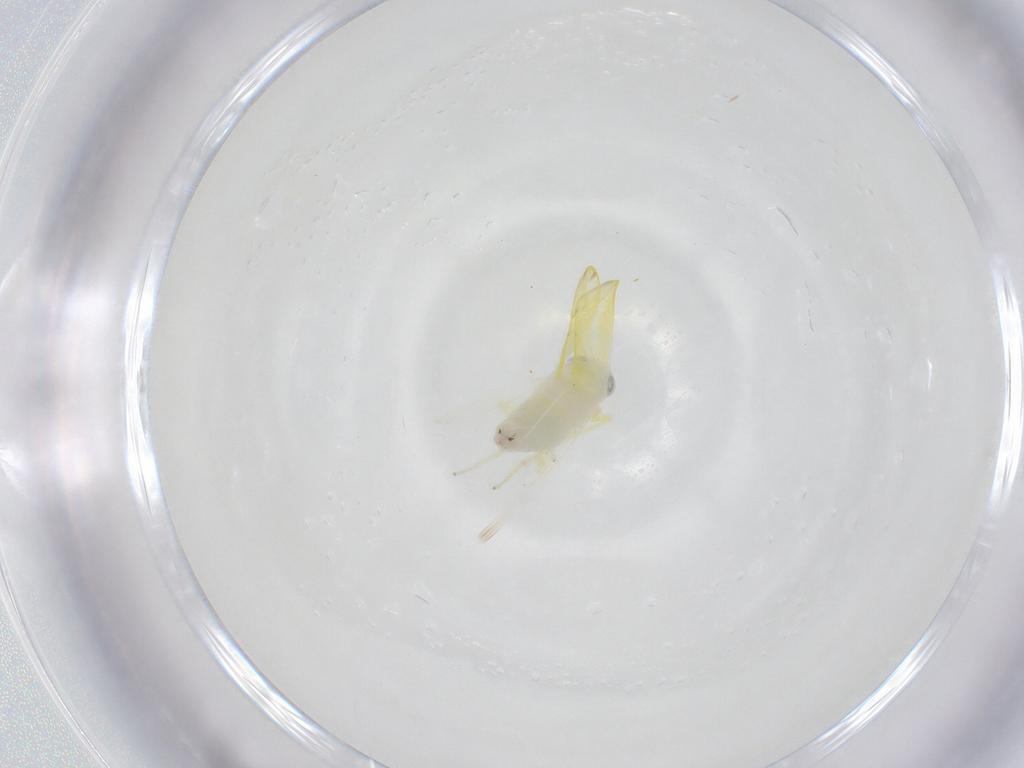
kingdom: Animalia
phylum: Arthropoda
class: Insecta
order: Hemiptera
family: Cicadellidae
